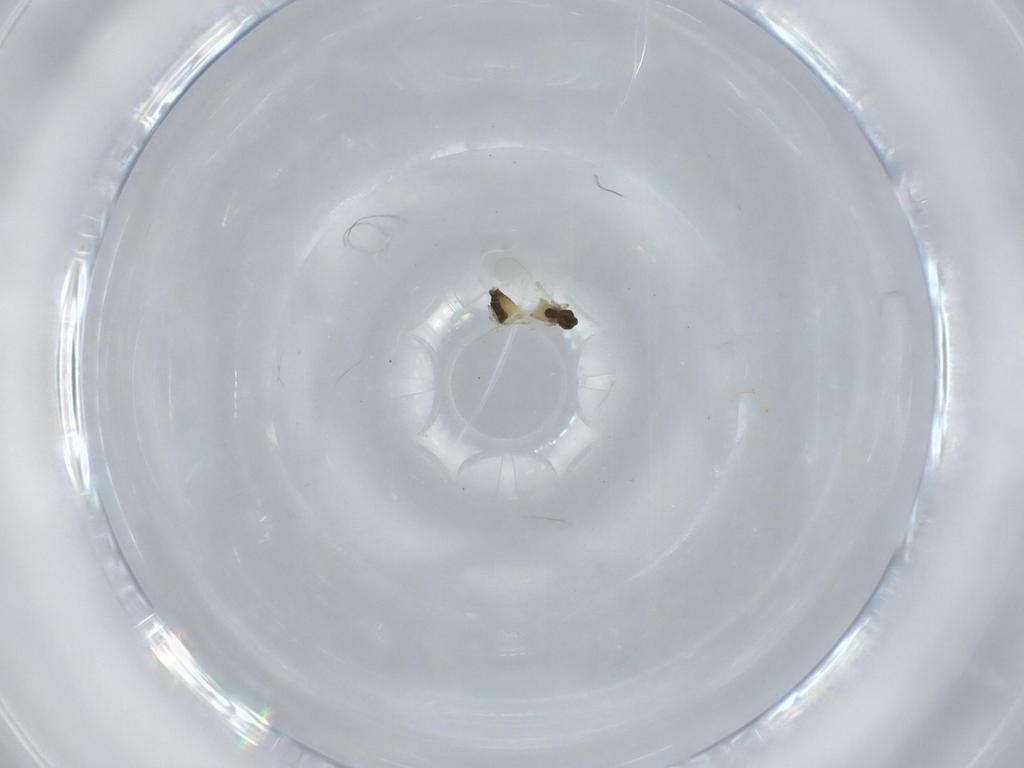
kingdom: Animalia
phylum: Arthropoda
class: Insecta
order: Diptera
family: Chironomidae
